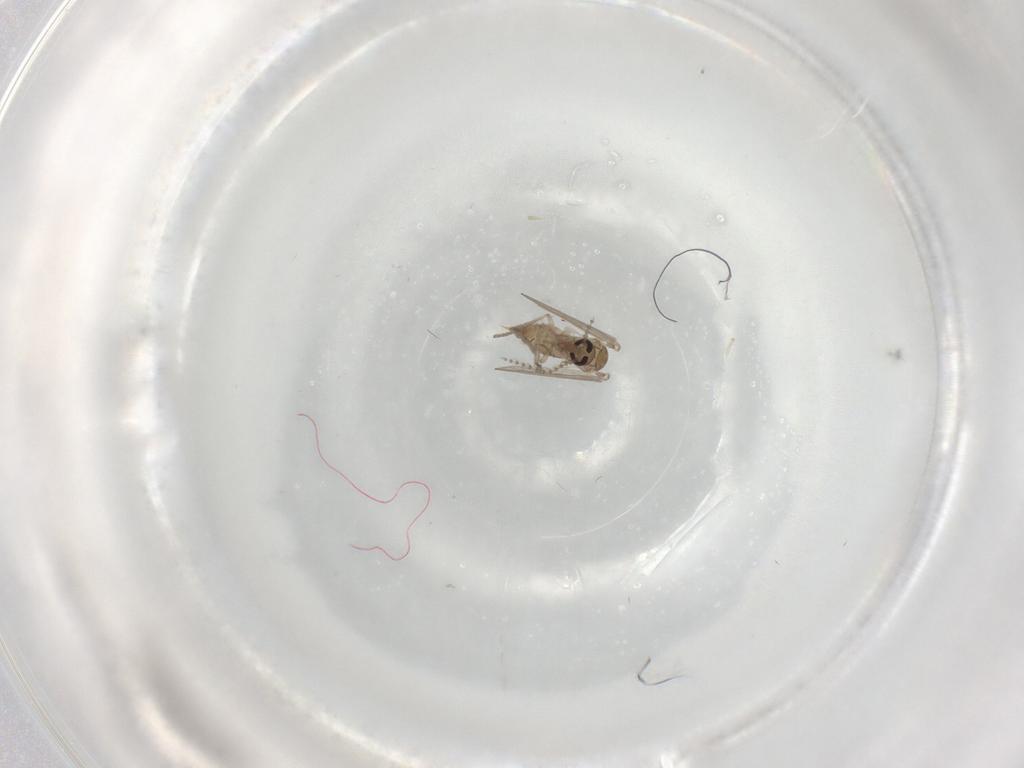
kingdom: Animalia
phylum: Arthropoda
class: Insecta
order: Diptera
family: Psychodidae
